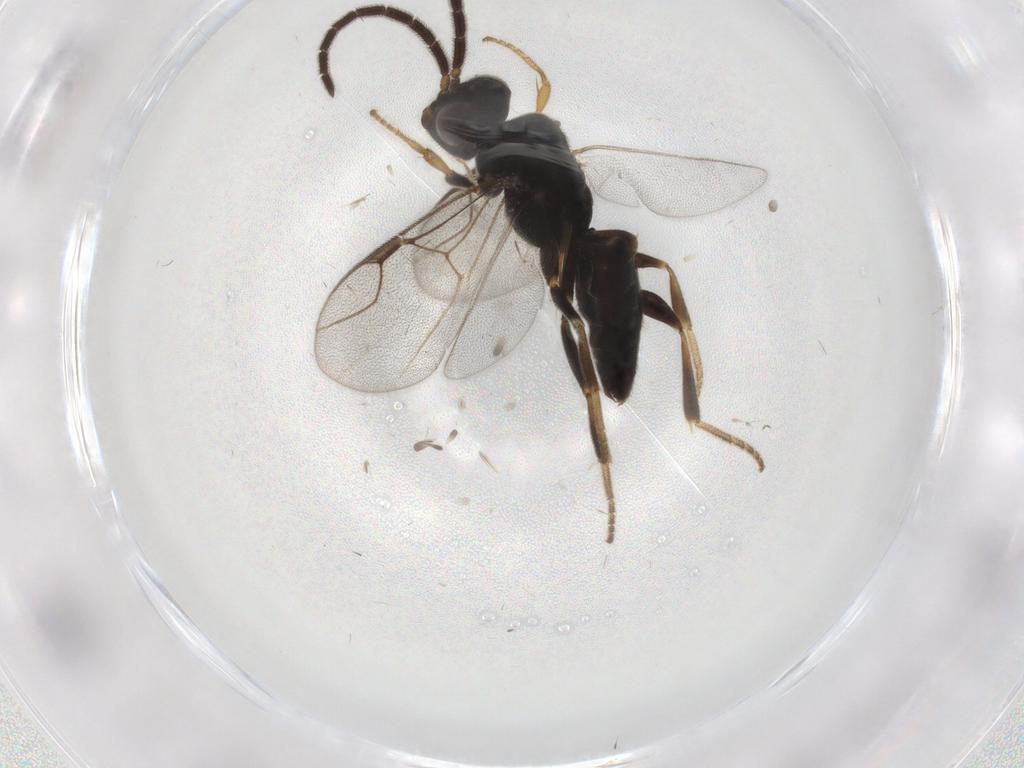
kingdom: Animalia
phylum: Arthropoda
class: Insecta
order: Hymenoptera
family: Dryinidae
